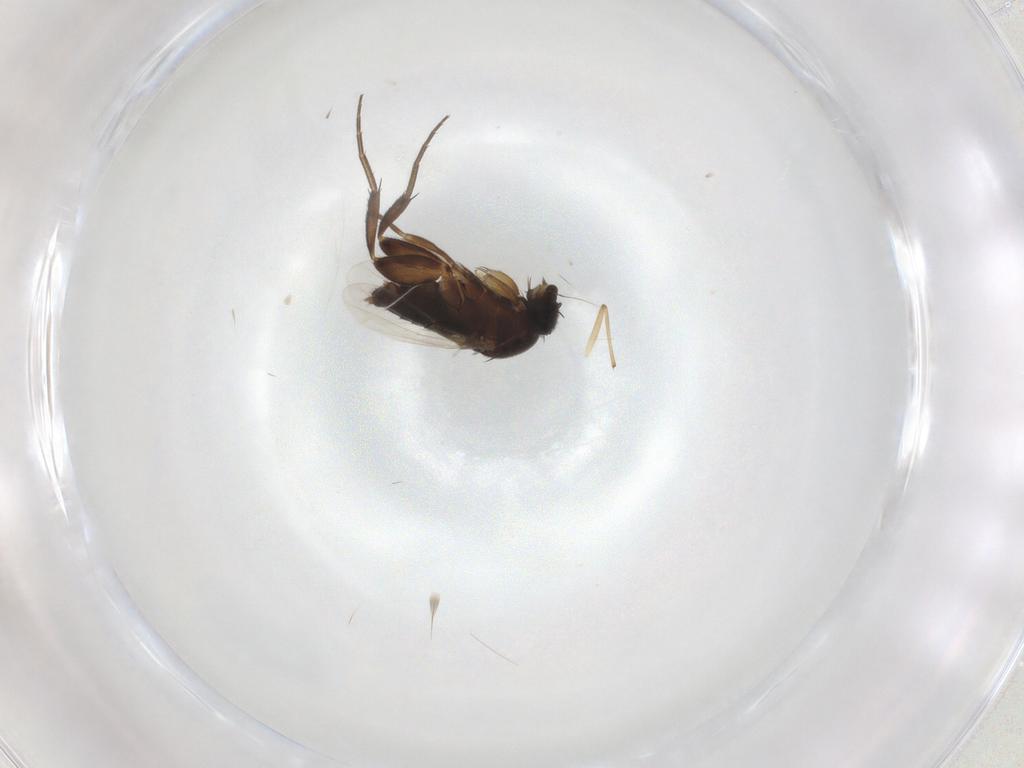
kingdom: Animalia
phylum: Arthropoda
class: Insecta
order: Diptera
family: Phoridae
